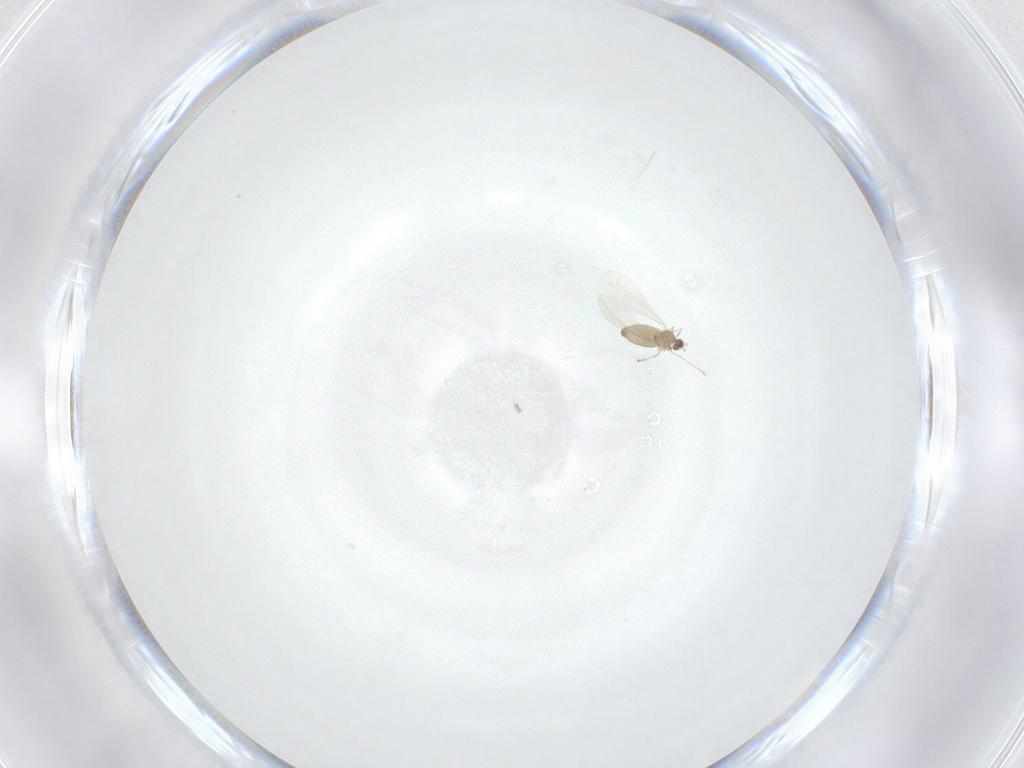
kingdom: Animalia
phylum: Arthropoda
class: Insecta
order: Diptera
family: Cecidomyiidae
